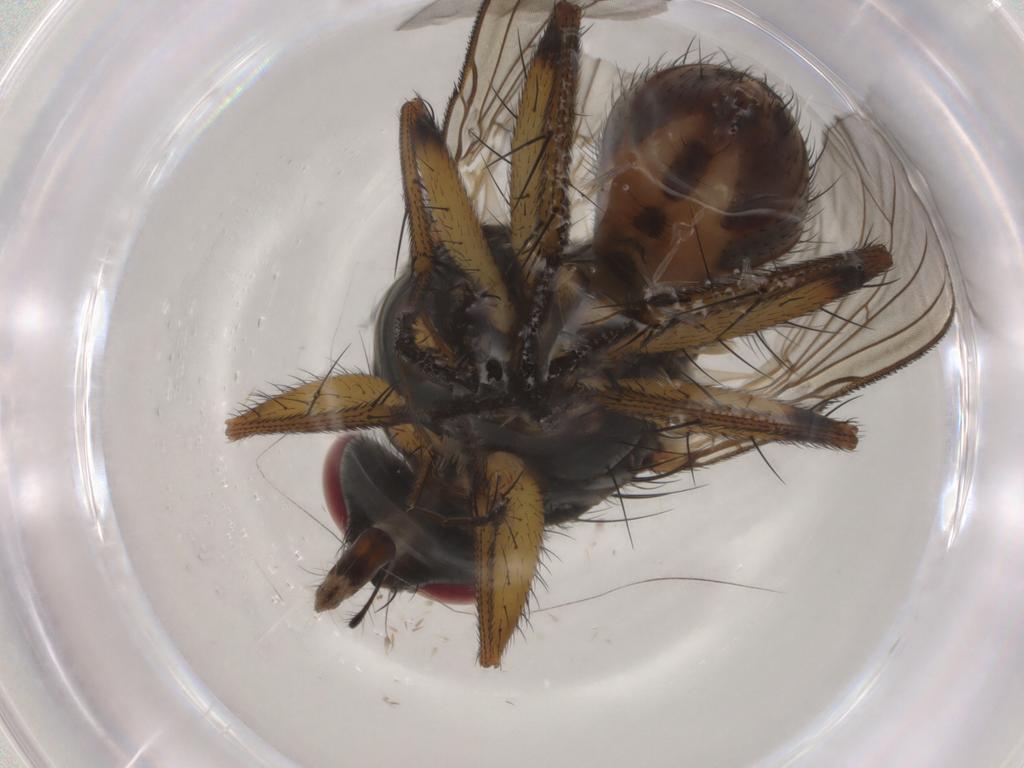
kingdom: Animalia
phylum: Arthropoda
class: Insecta
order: Diptera
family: Muscidae
